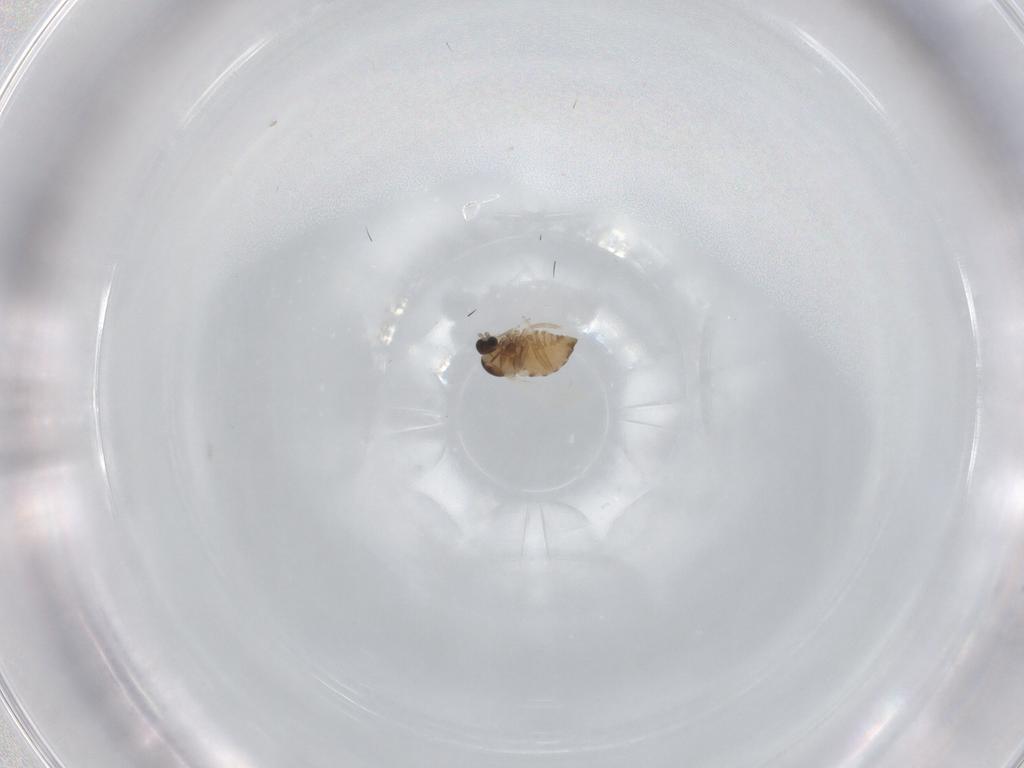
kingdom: Animalia
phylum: Arthropoda
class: Insecta
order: Diptera
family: Cecidomyiidae
